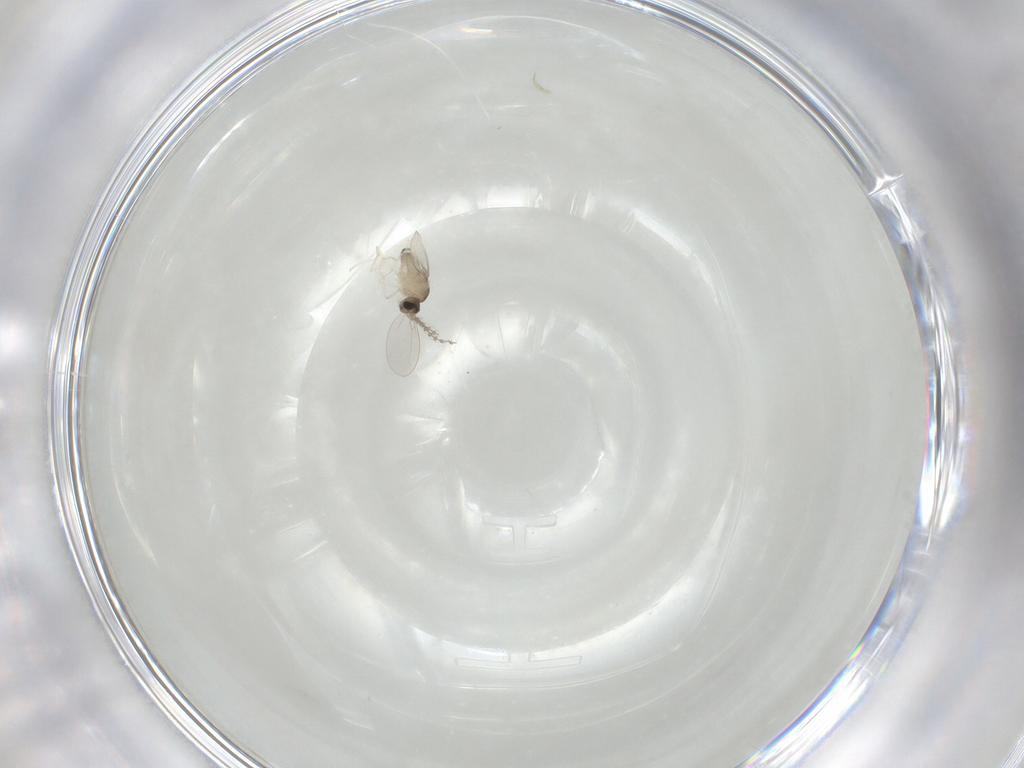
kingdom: Animalia
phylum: Arthropoda
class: Insecta
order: Diptera
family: Cecidomyiidae
